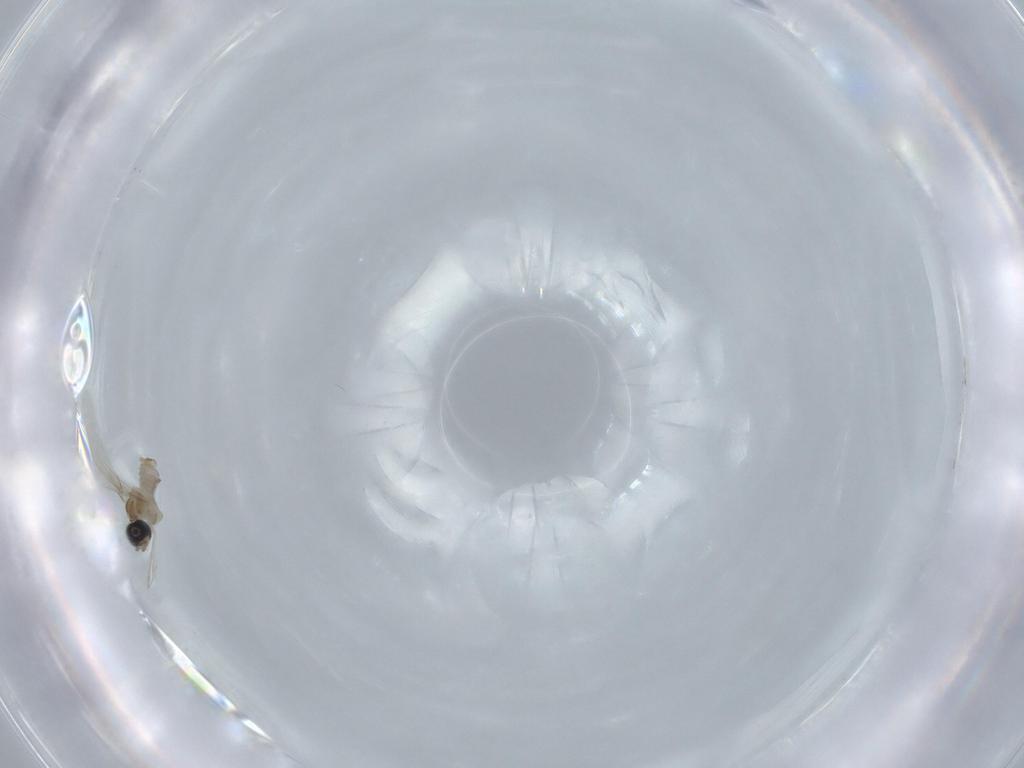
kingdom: Animalia
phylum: Arthropoda
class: Insecta
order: Diptera
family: Cecidomyiidae
